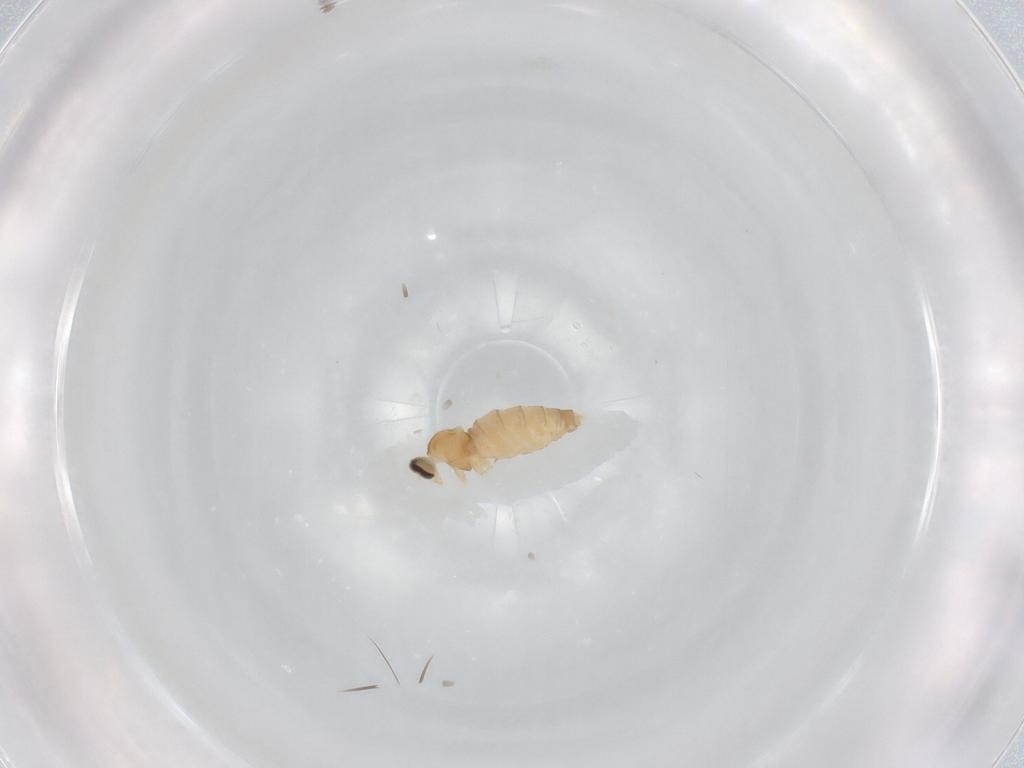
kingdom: Animalia
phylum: Arthropoda
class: Insecta
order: Diptera
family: Cecidomyiidae
